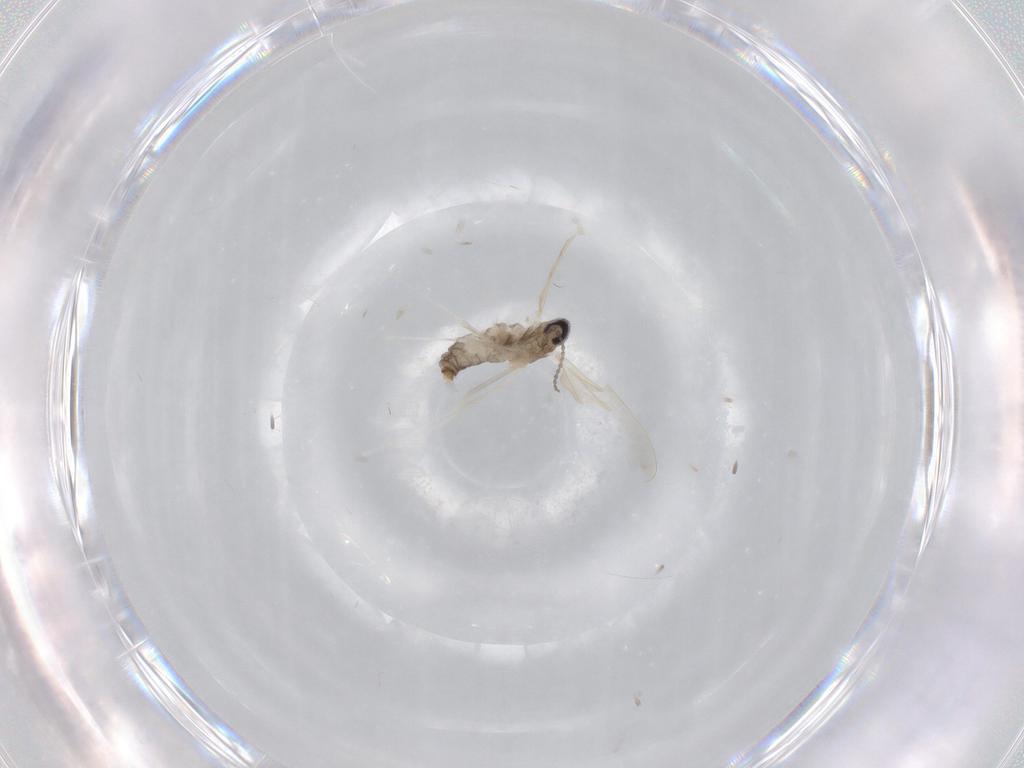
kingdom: Animalia
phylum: Arthropoda
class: Insecta
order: Diptera
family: Cecidomyiidae
